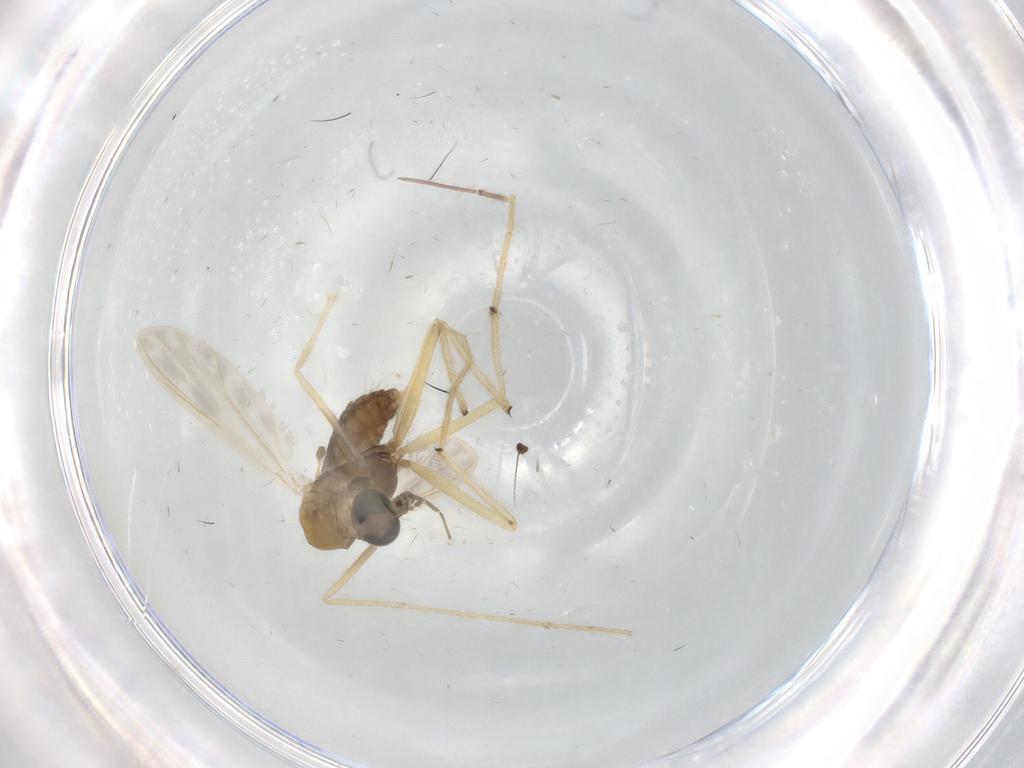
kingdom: Animalia
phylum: Arthropoda
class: Insecta
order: Diptera
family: Chironomidae
